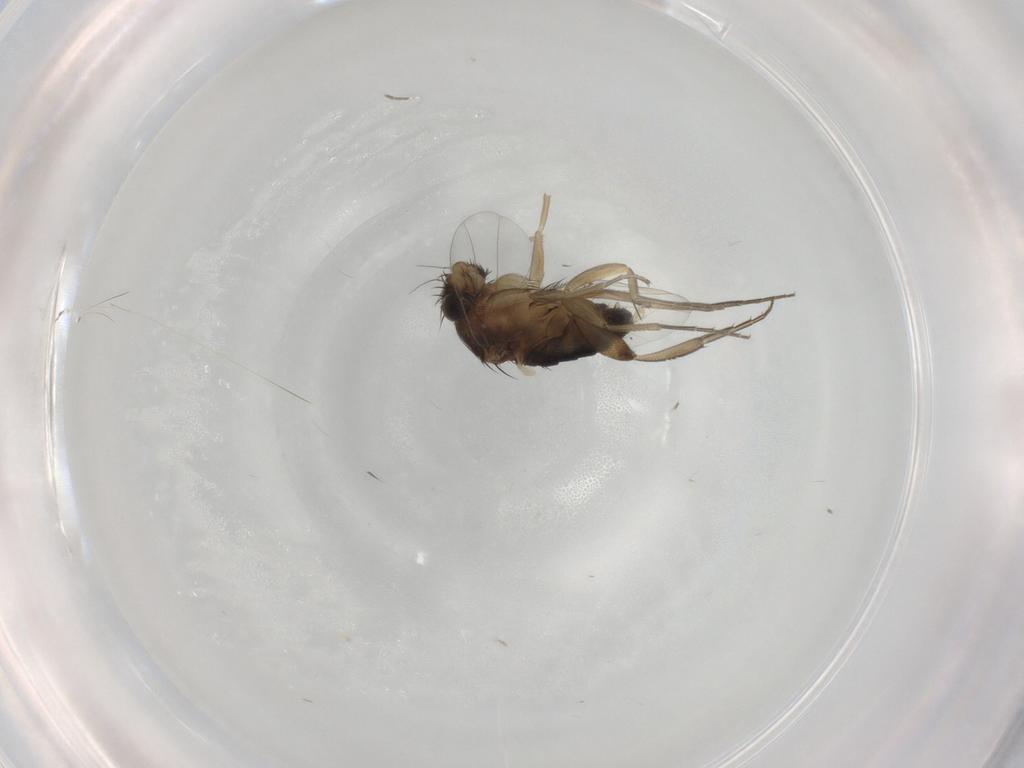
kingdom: Animalia
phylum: Arthropoda
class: Insecta
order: Diptera
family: Phoridae
